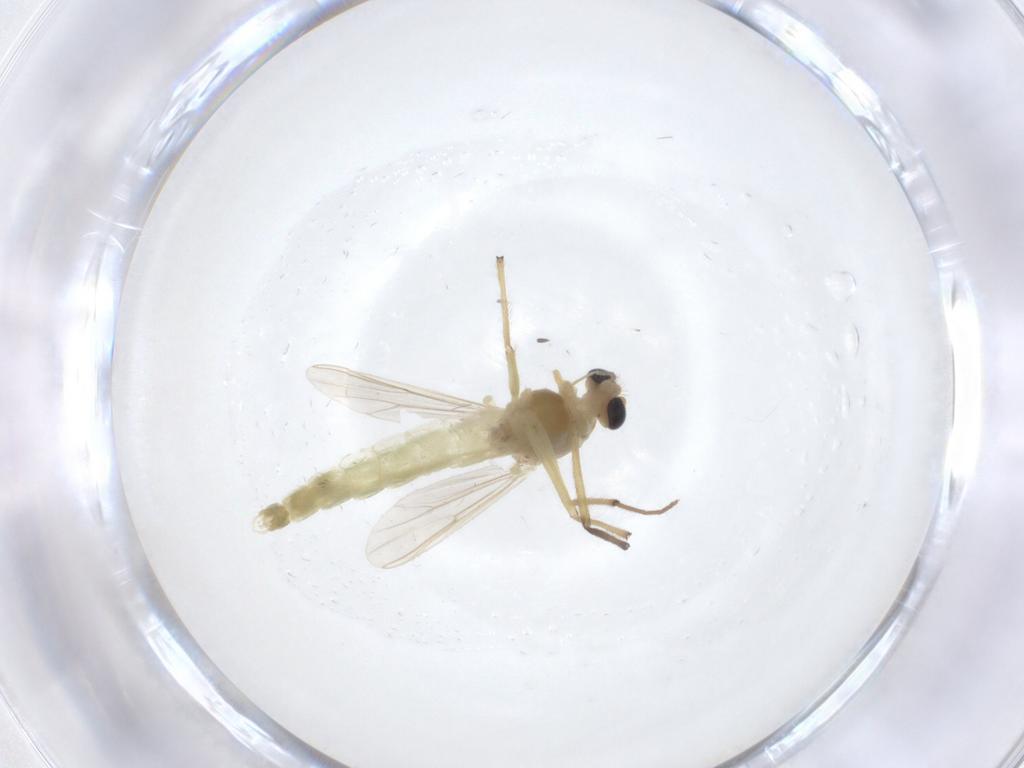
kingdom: Animalia
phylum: Arthropoda
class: Insecta
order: Diptera
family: Chironomidae
